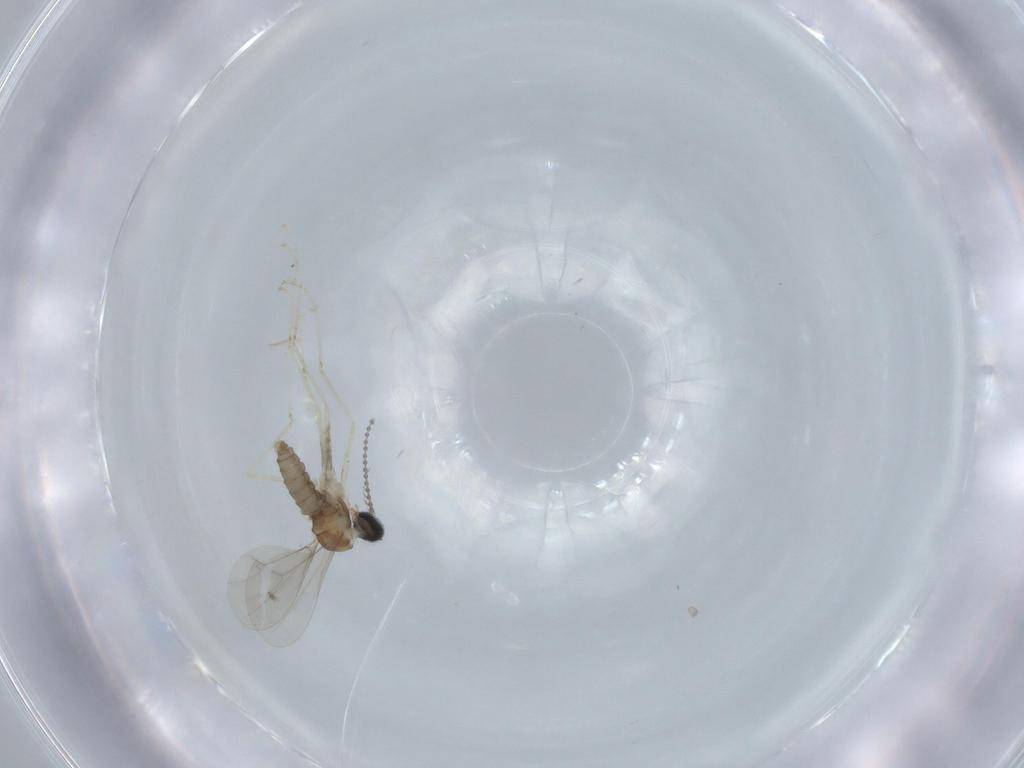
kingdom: Animalia
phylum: Arthropoda
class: Insecta
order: Diptera
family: Cecidomyiidae
